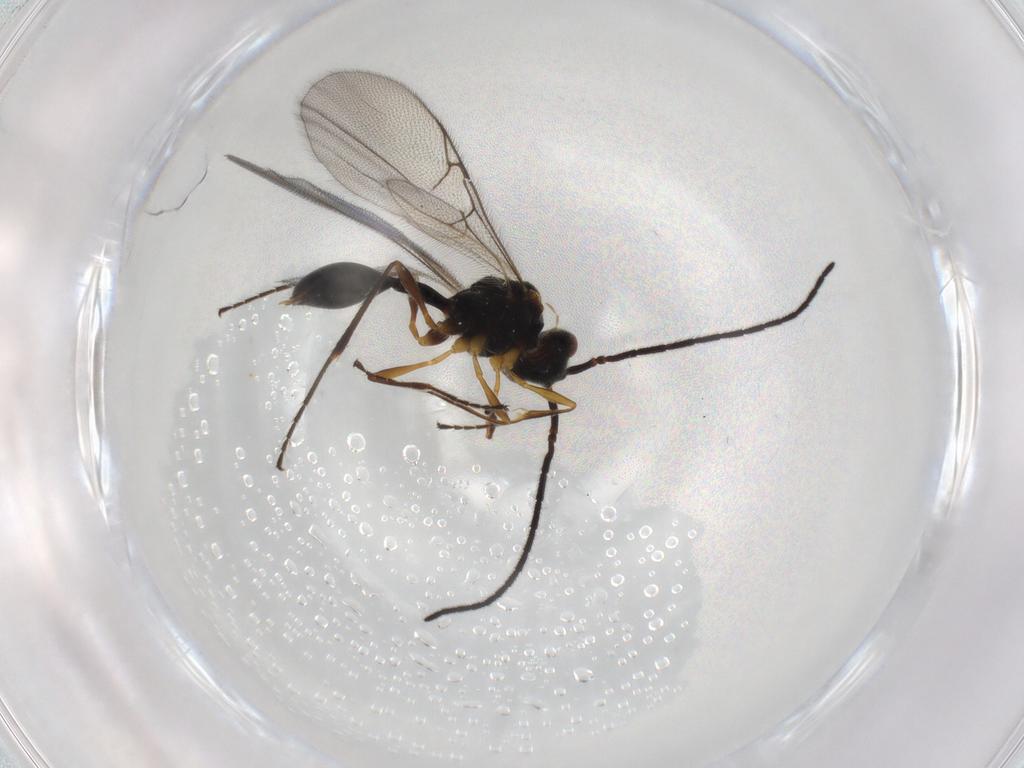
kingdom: Animalia
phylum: Arthropoda
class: Insecta
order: Hymenoptera
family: Diapriidae
